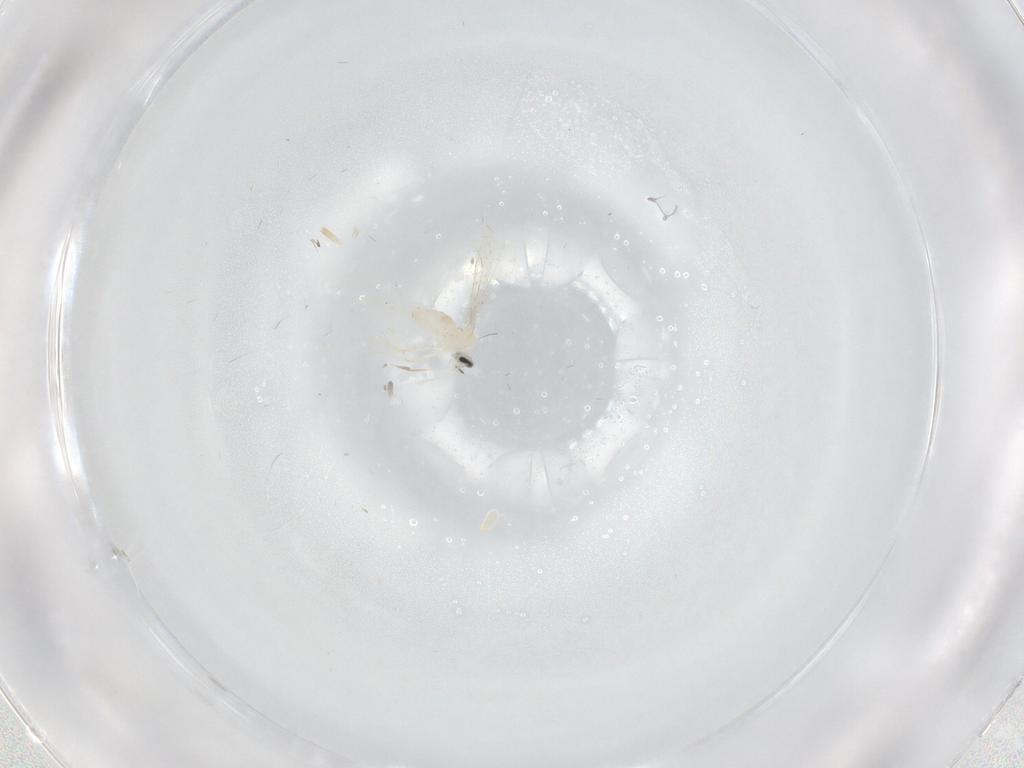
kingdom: Animalia
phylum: Arthropoda
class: Insecta
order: Diptera
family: Cecidomyiidae
